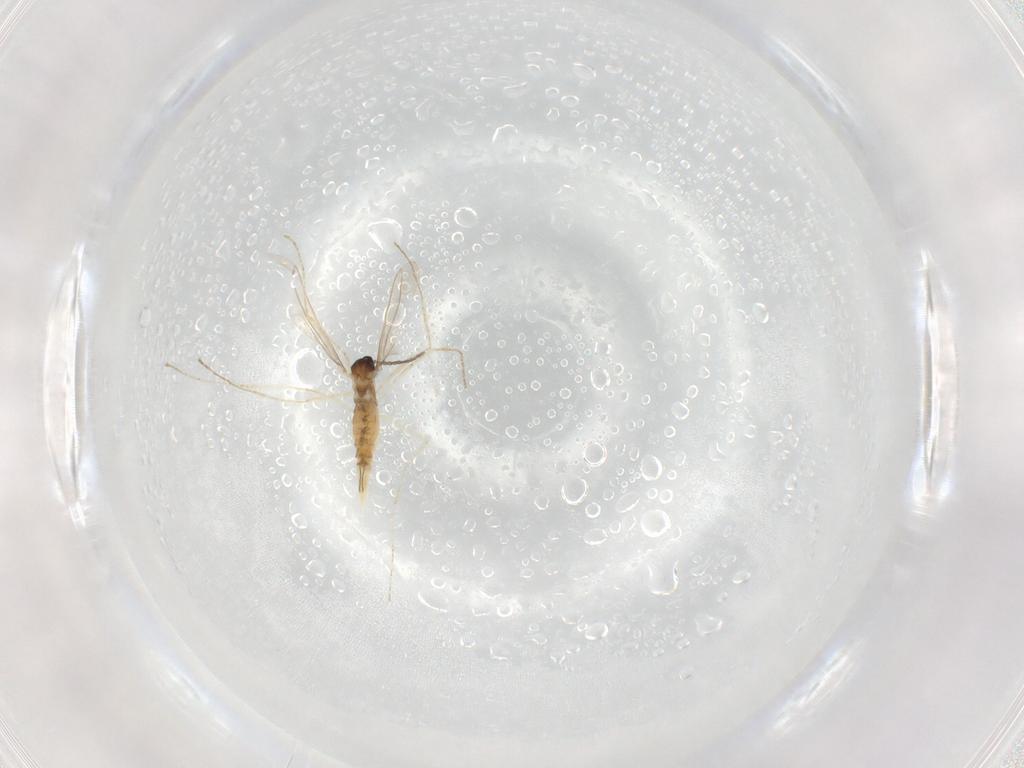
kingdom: Animalia
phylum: Arthropoda
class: Insecta
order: Diptera
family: Cecidomyiidae
